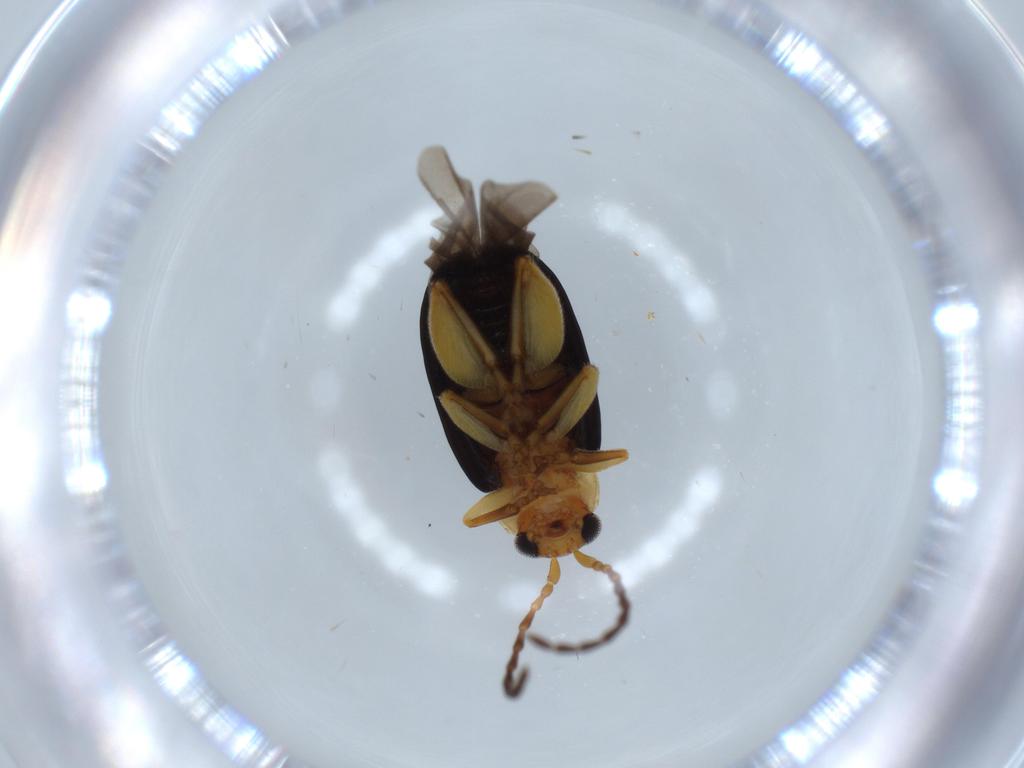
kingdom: Animalia
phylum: Arthropoda
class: Insecta
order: Coleoptera
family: Chrysomelidae
